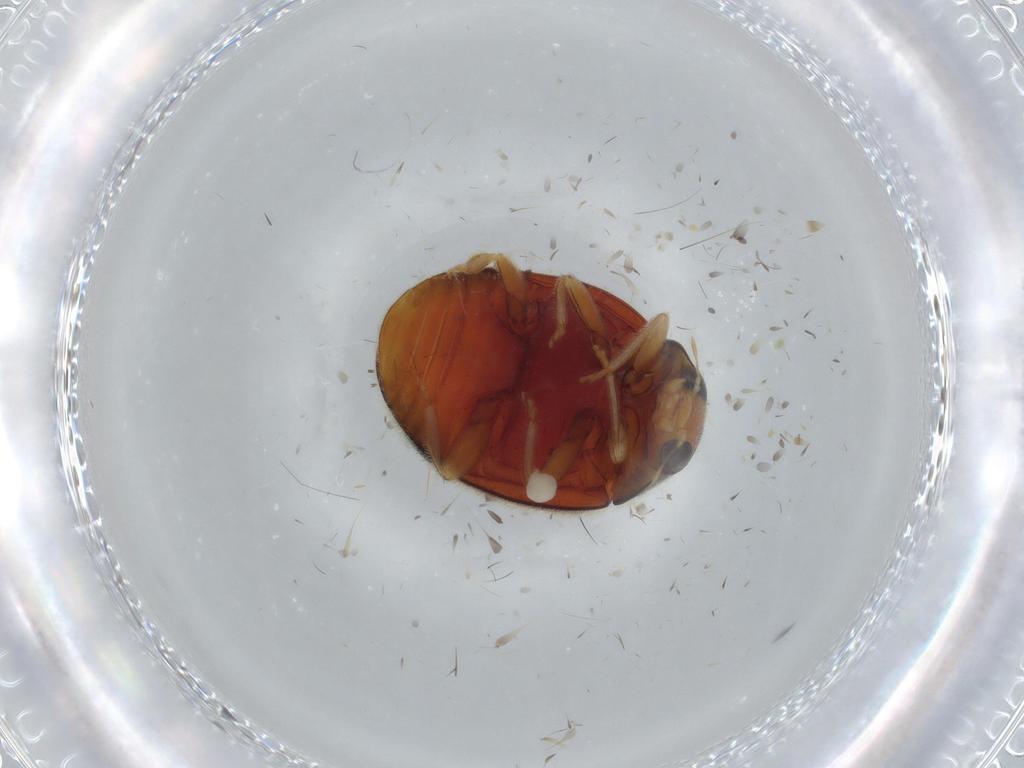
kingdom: Animalia
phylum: Arthropoda
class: Insecta
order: Coleoptera
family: Coccinellidae
